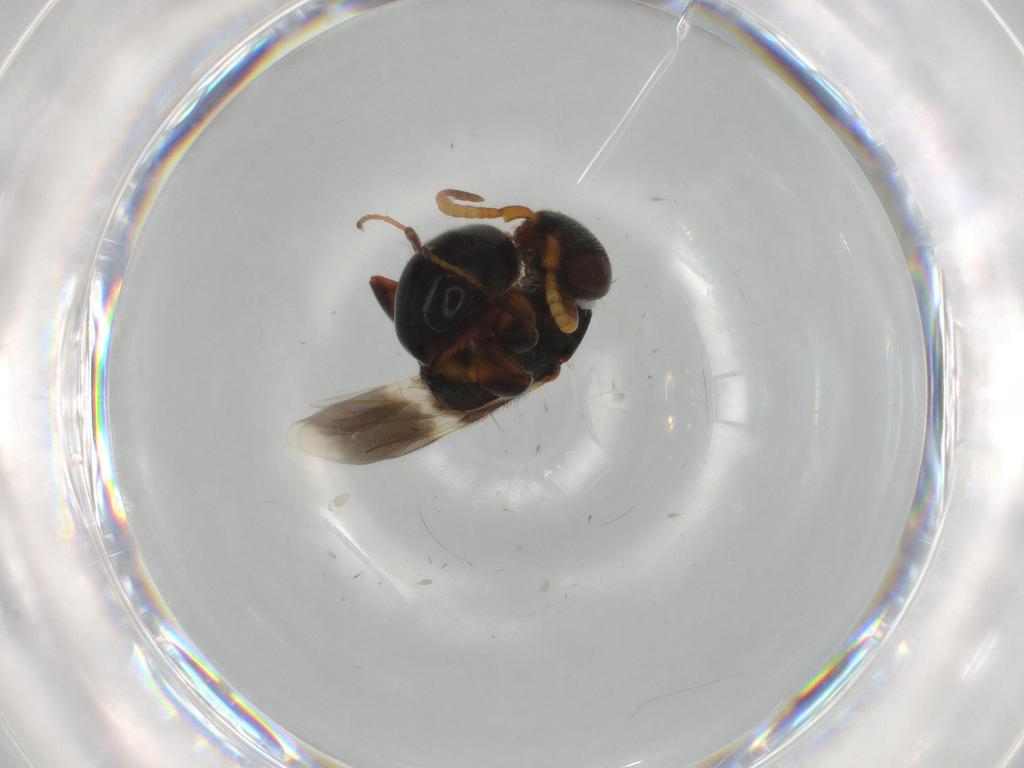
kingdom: Animalia
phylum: Arthropoda
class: Insecta
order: Hymenoptera
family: Bethylidae
